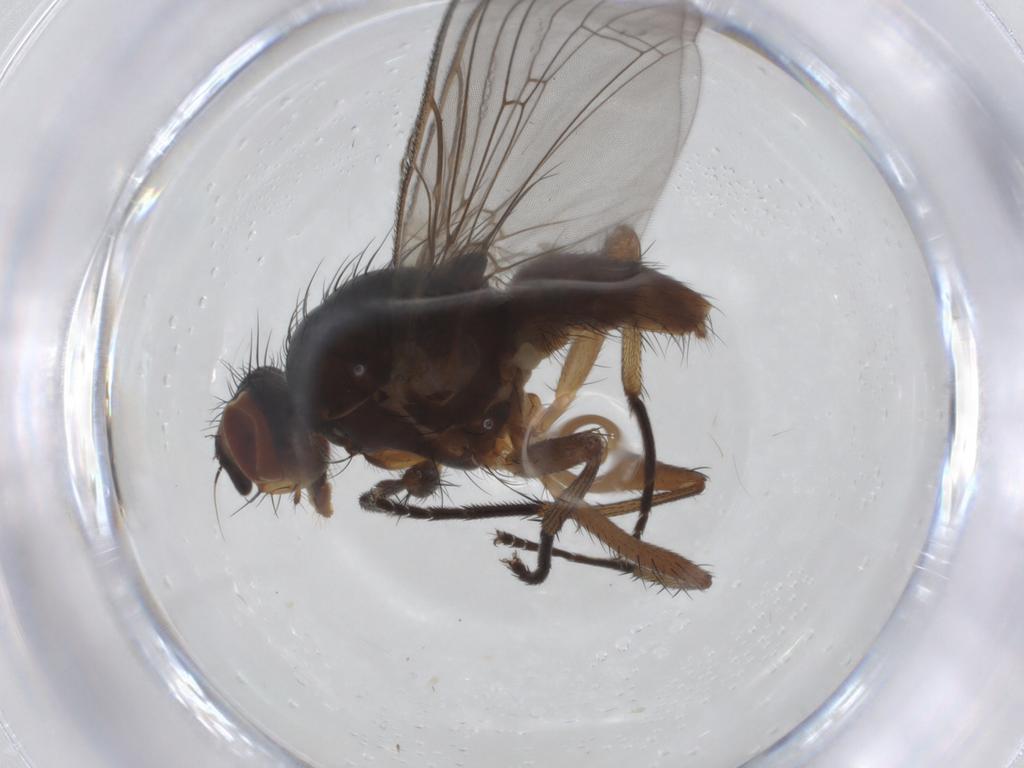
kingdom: Animalia
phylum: Arthropoda
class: Insecta
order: Diptera
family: Anthomyiidae
